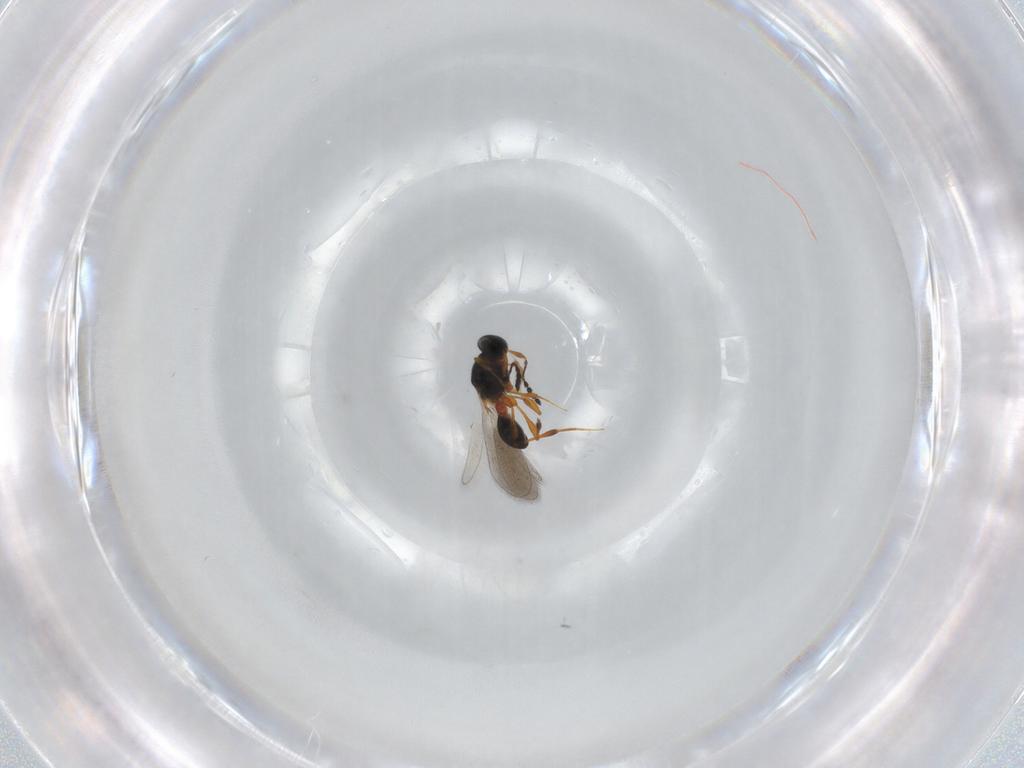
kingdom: Animalia
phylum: Arthropoda
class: Insecta
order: Hymenoptera
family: Platygastridae
